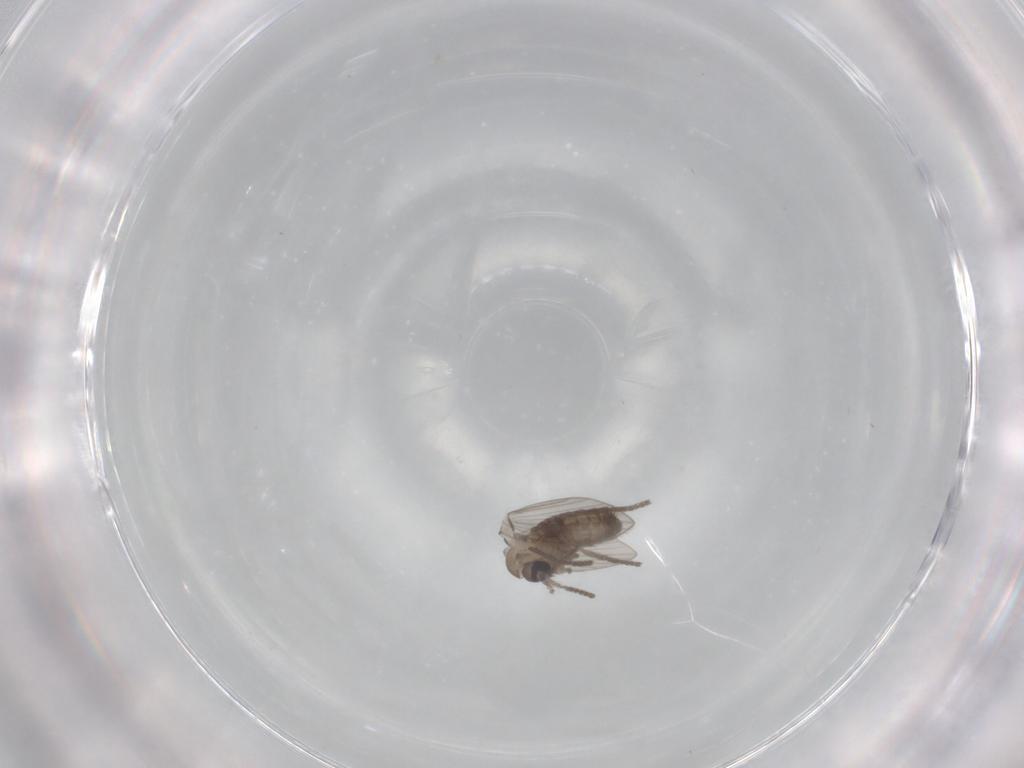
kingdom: Animalia
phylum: Arthropoda
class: Insecta
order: Diptera
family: Psychodidae
